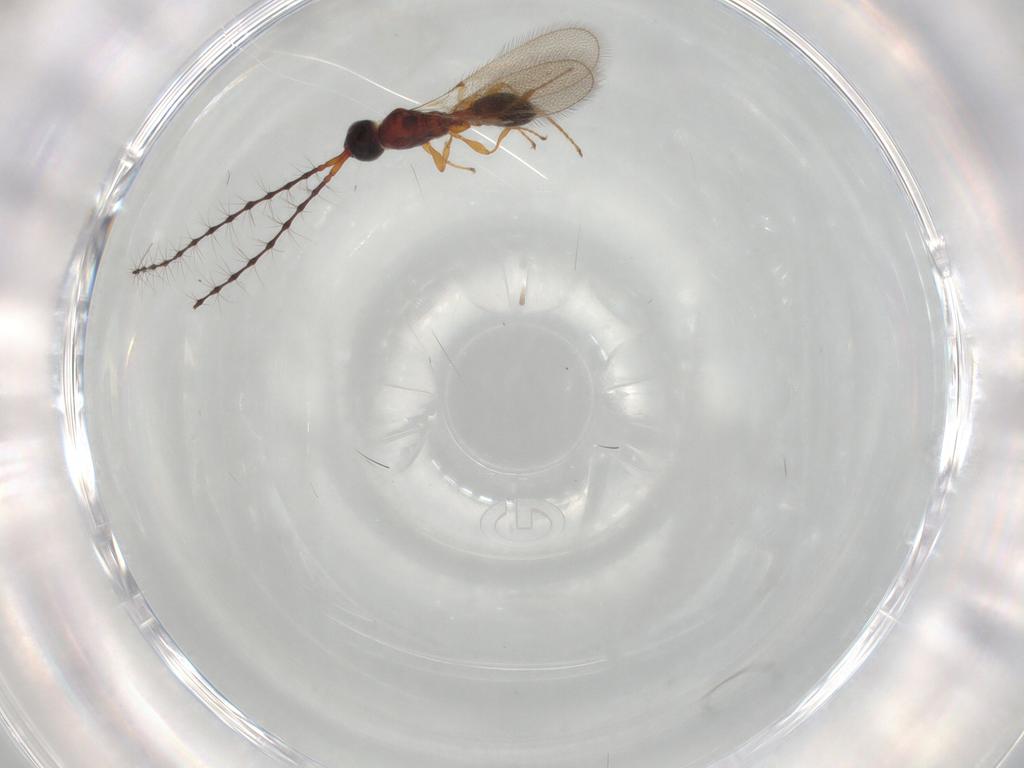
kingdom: Animalia
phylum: Arthropoda
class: Insecta
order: Hymenoptera
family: Diapriidae
